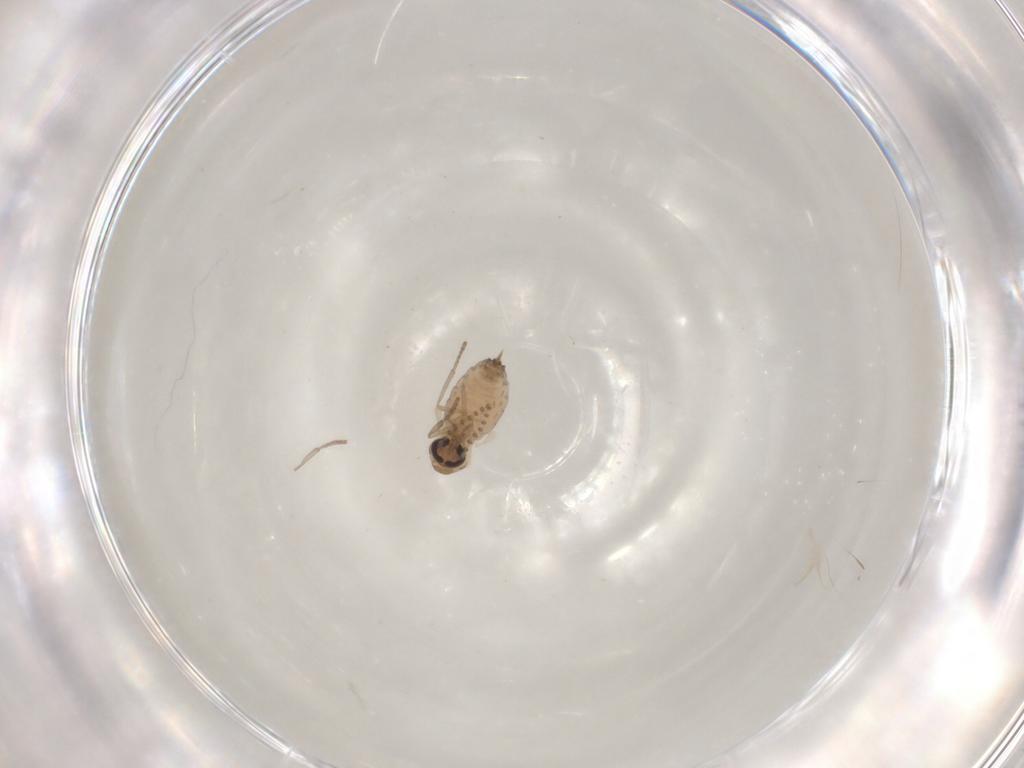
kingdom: Animalia
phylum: Arthropoda
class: Insecta
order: Diptera
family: Psychodidae
